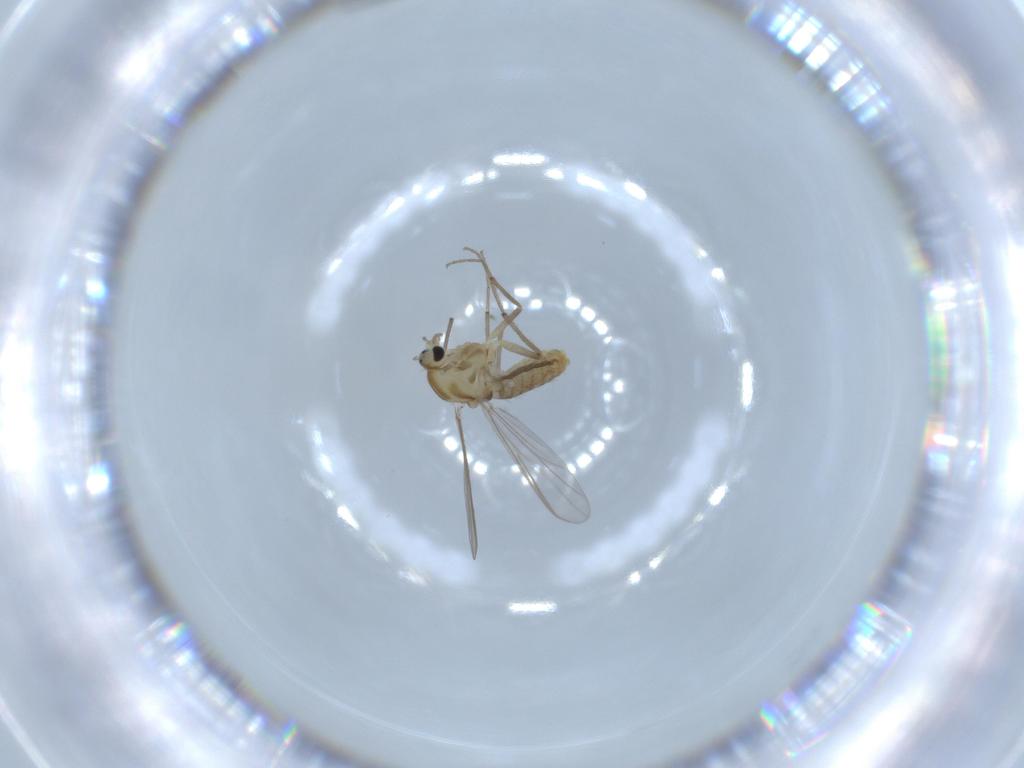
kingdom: Animalia
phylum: Arthropoda
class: Insecta
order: Diptera
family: Chironomidae
